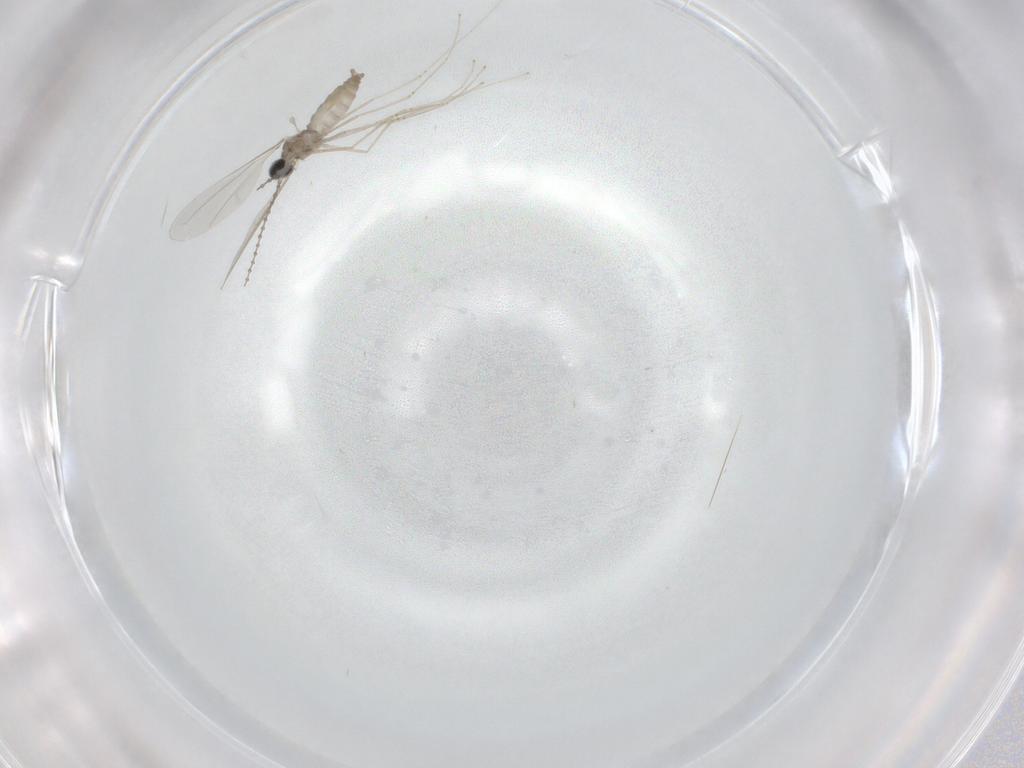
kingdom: Animalia
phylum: Arthropoda
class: Insecta
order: Diptera
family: Cecidomyiidae
